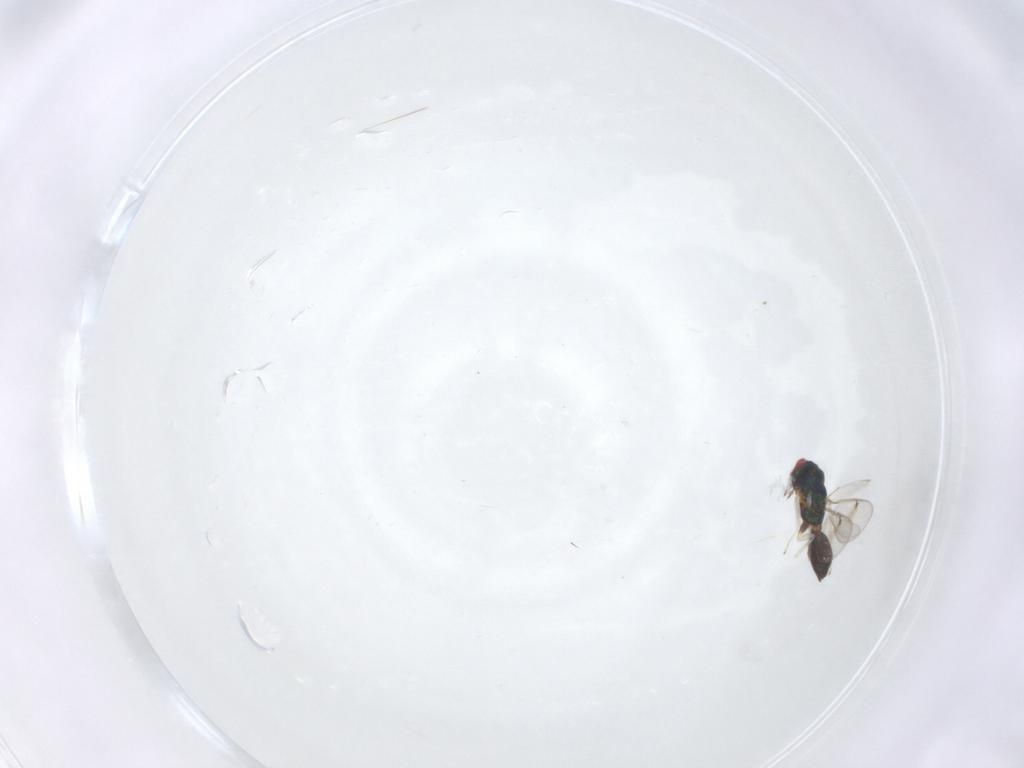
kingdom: Animalia
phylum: Arthropoda
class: Insecta
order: Hymenoptera
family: Eulophidae
